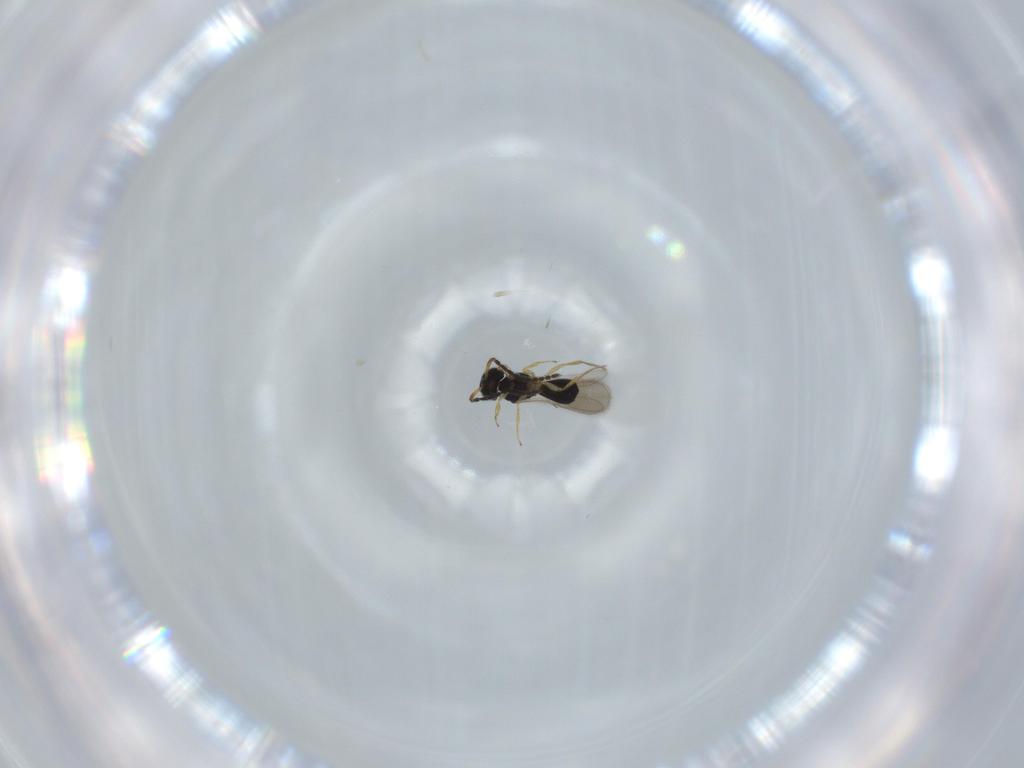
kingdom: Animalia
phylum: Arthropoda
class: Insecta
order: Hymenoptera
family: Scelionidae
